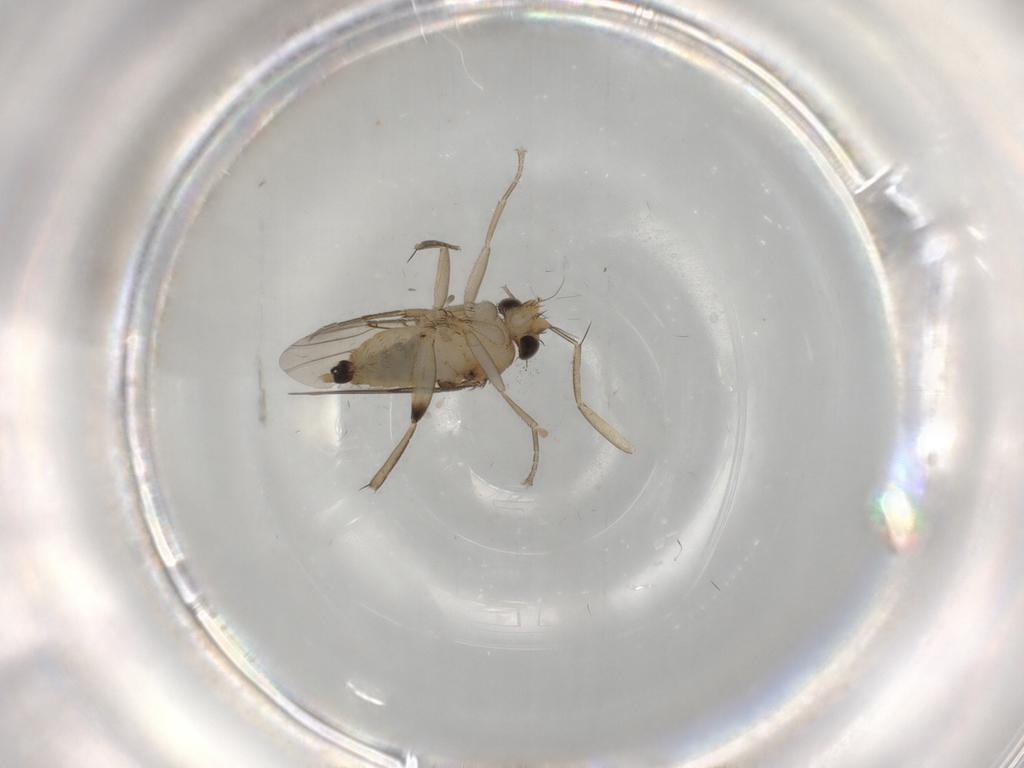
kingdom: Animalia
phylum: Arthropoda
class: Insecta
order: Diptera
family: Phoridae
